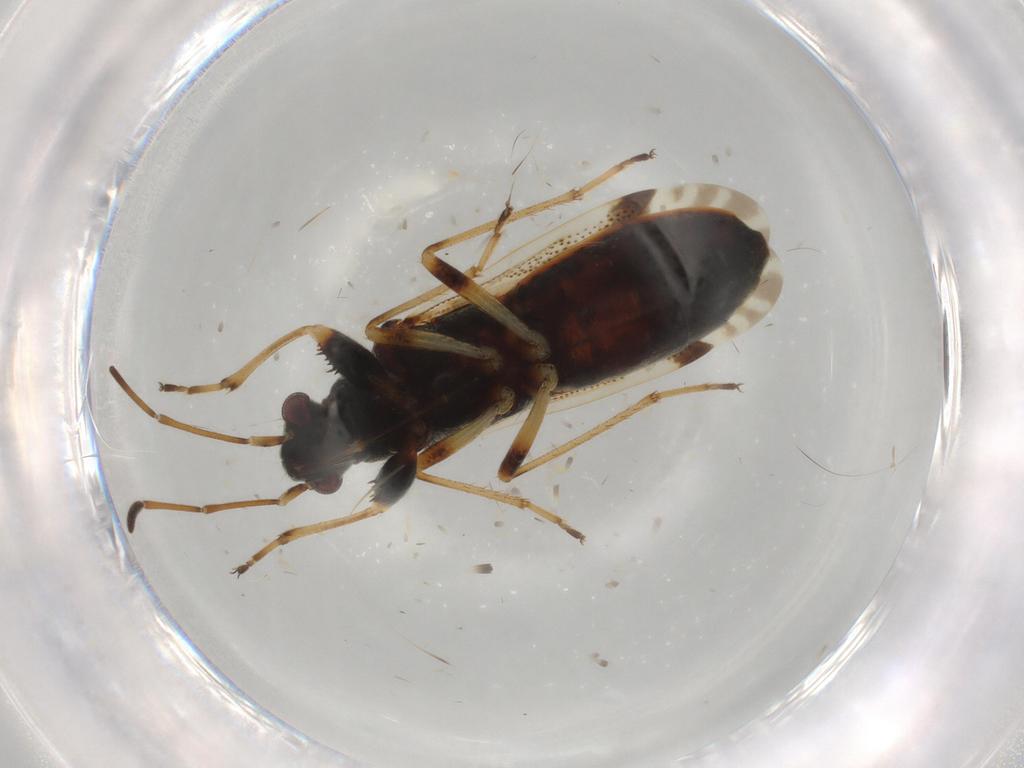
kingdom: Animalia
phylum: Arthropoda
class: Insecta
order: Hemiptera
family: Rhyparochromidae
